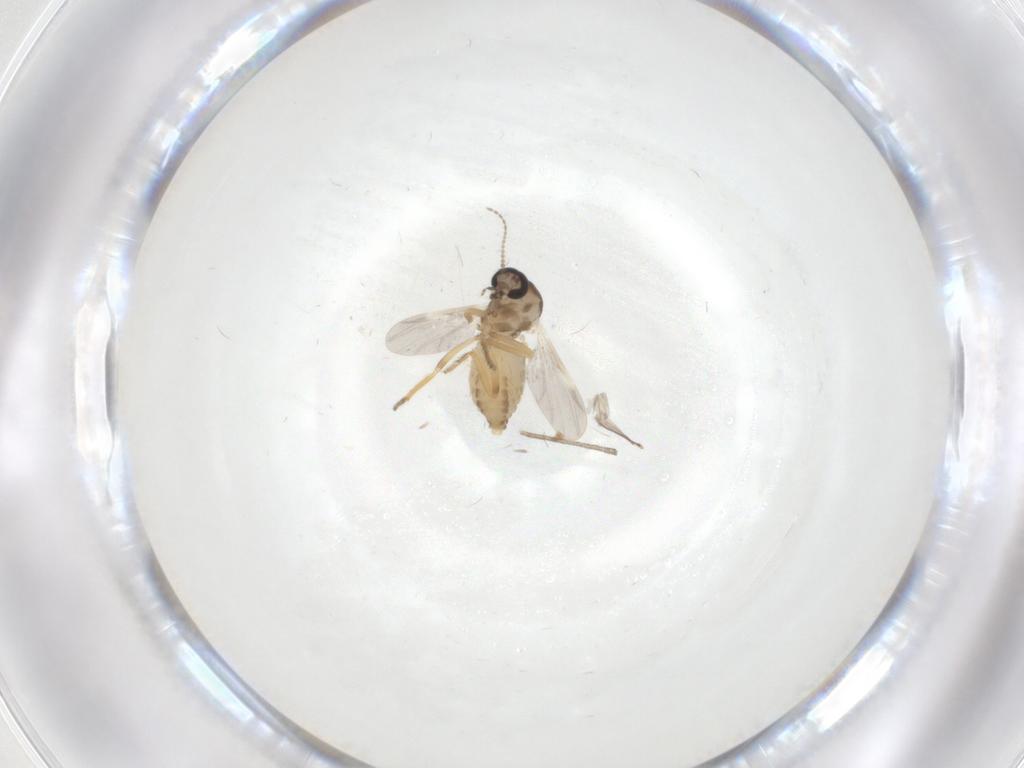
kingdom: Animalia
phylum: Arthropoda
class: Insecta
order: Diptera
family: Ceratopogonidae
